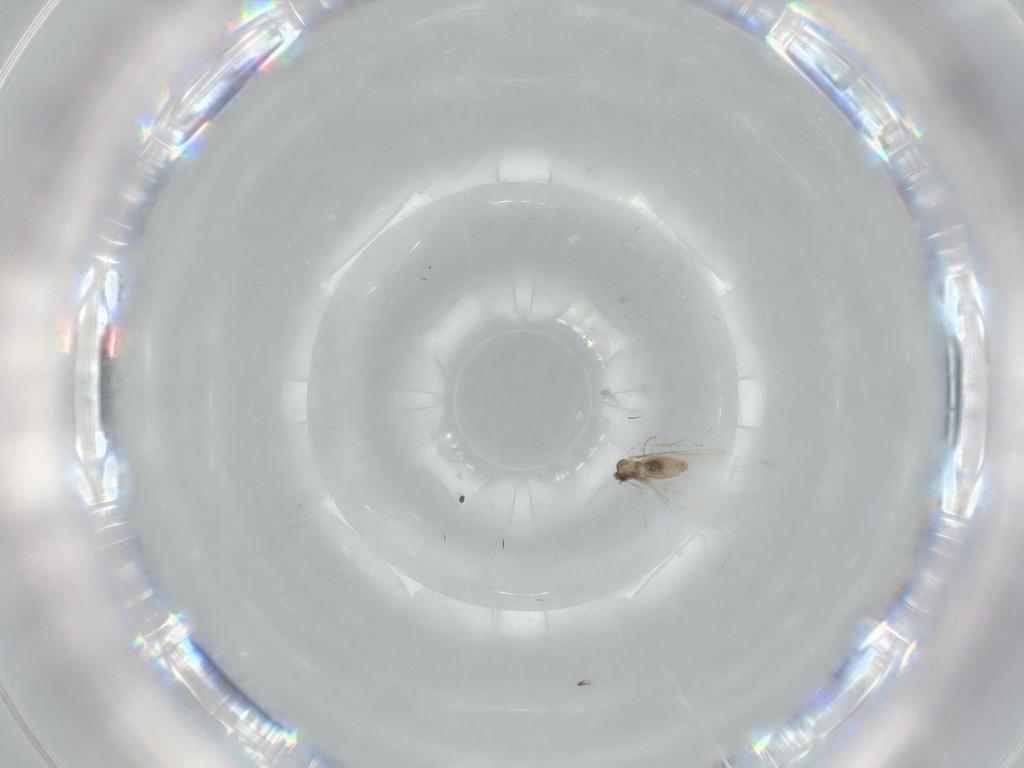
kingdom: Animalia
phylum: Arthropoda
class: Insecta
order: Diptera
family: Cecidomyiidae
